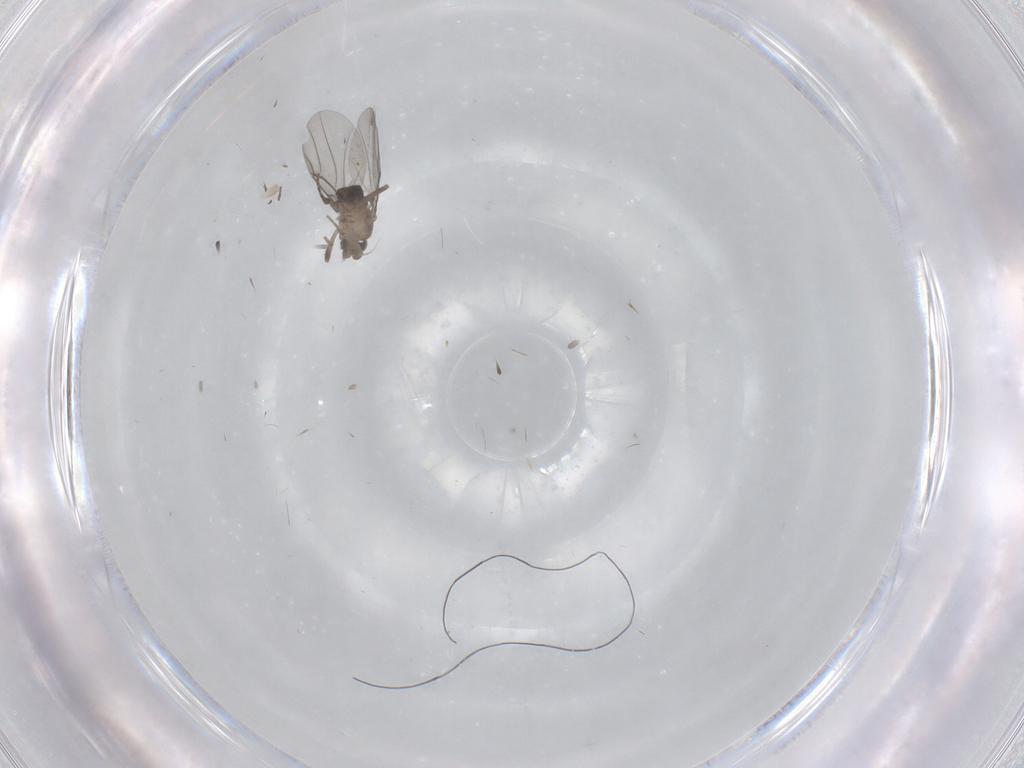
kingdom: Animalia
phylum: Arthropoda
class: Insecta
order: Diptera
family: Phoridae
